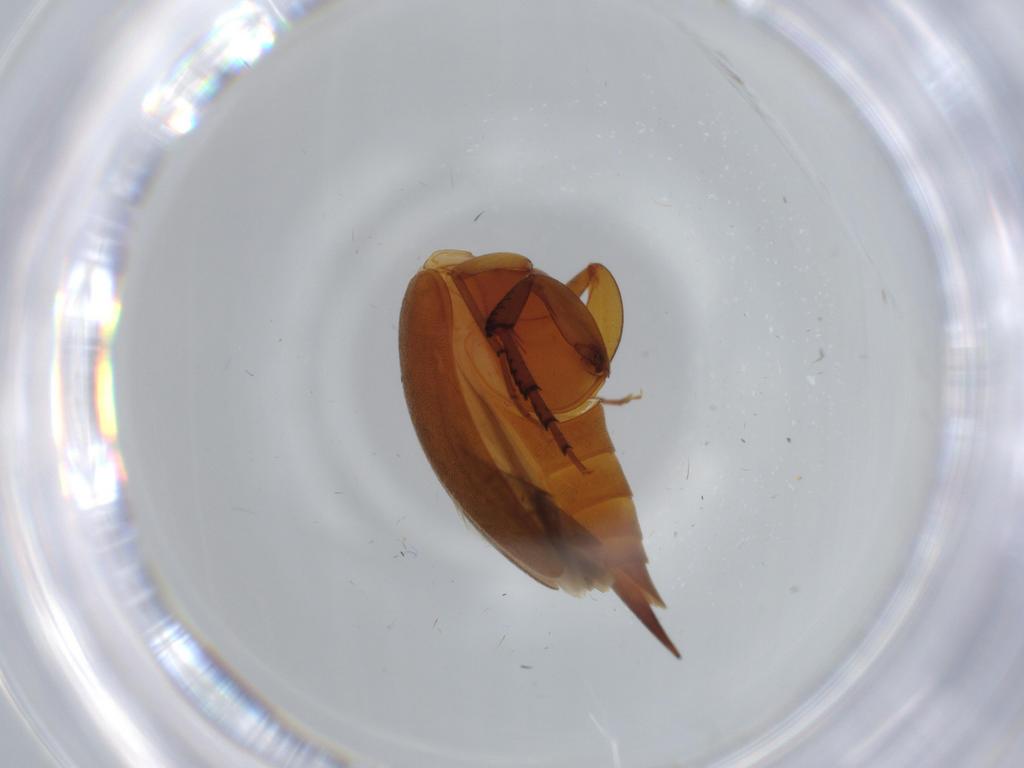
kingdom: Animalia
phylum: Arthropoda
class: Insecta
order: Coleoptera
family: Mordellidae
